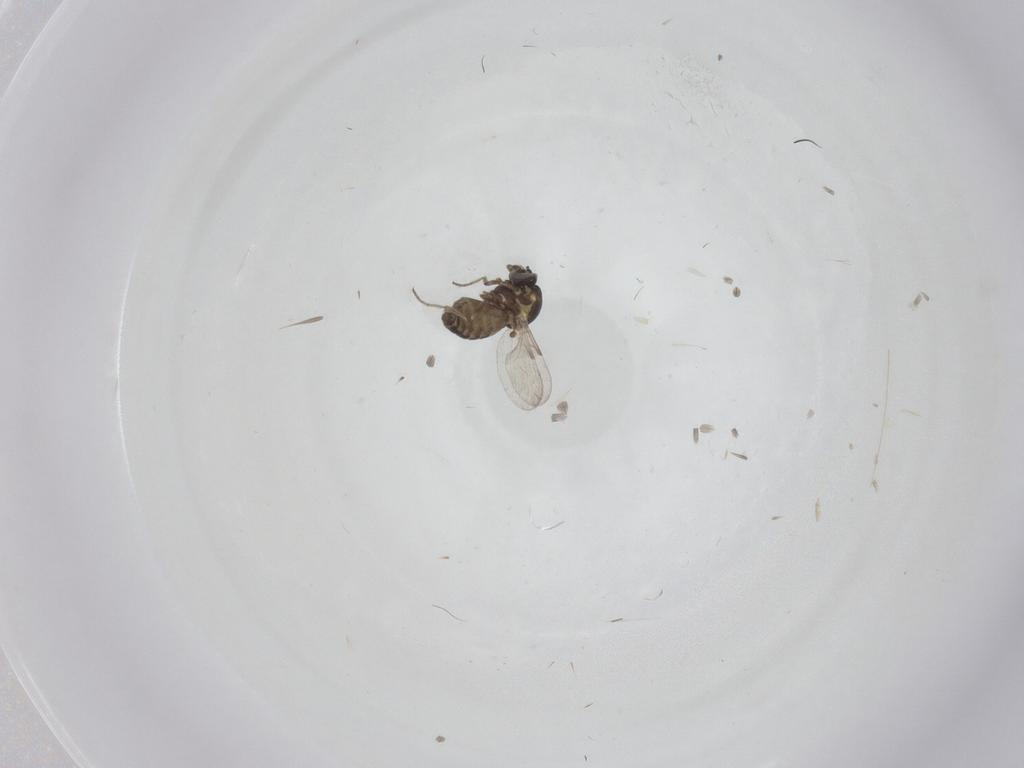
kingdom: Animalia
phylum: Arthropoda
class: Insecta
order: Diptera
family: Ceratopogonidae
